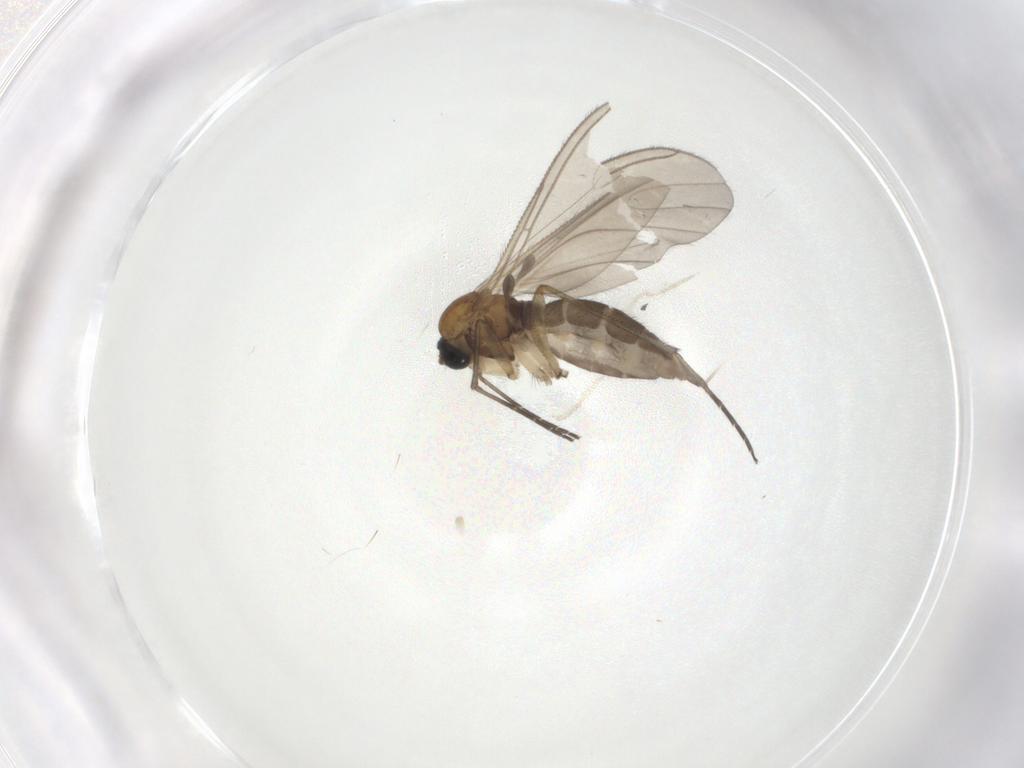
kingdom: Animalia
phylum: Arthropoda
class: Insecta
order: Diptera
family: Sciaridae
